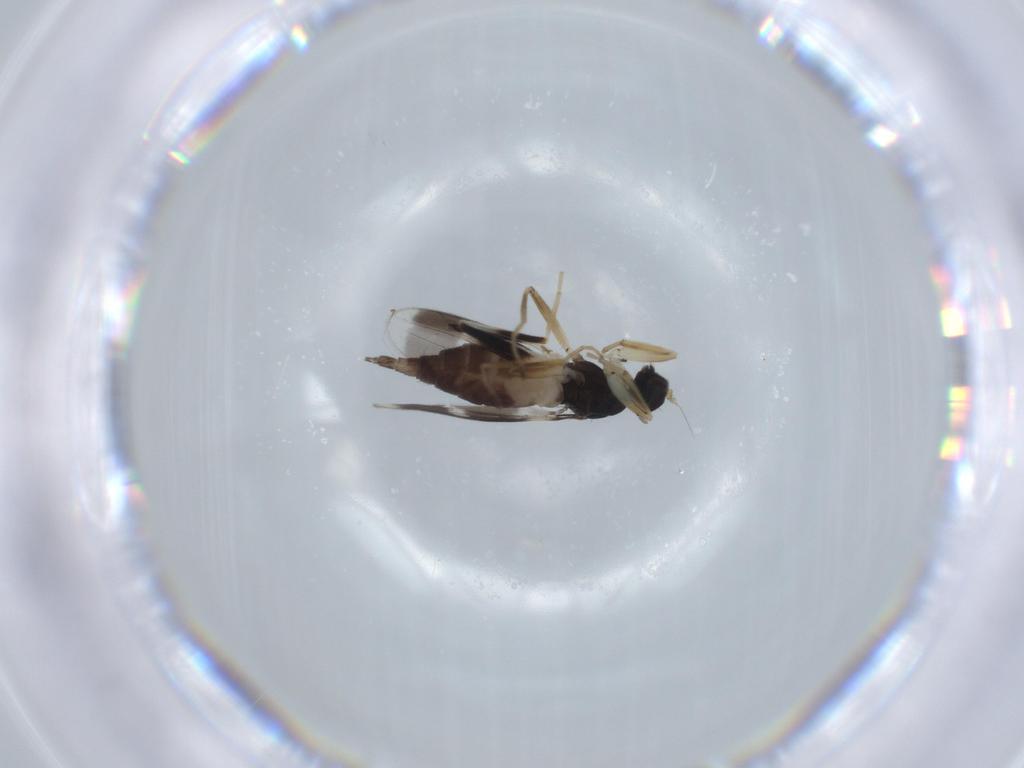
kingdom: Animalia
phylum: Arthropoda
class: Insecta
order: Diptera
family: Hybotidae
